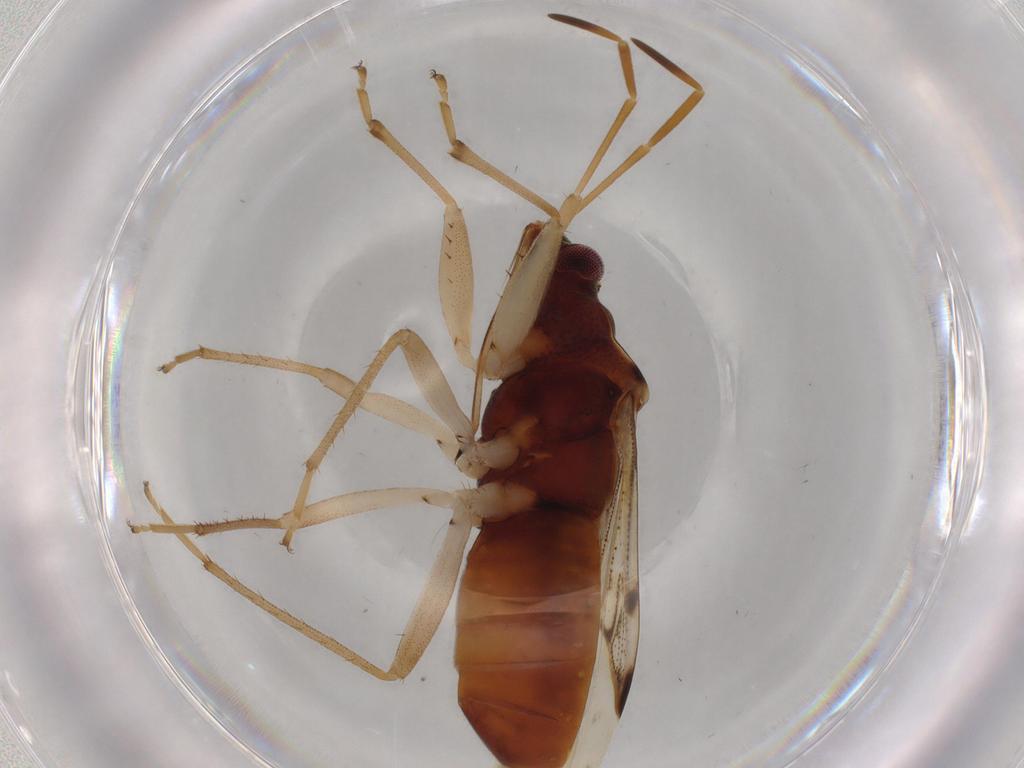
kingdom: Animalia
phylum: Arthropoda
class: Insecta
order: Hemiptera
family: Rhyparochromidae
